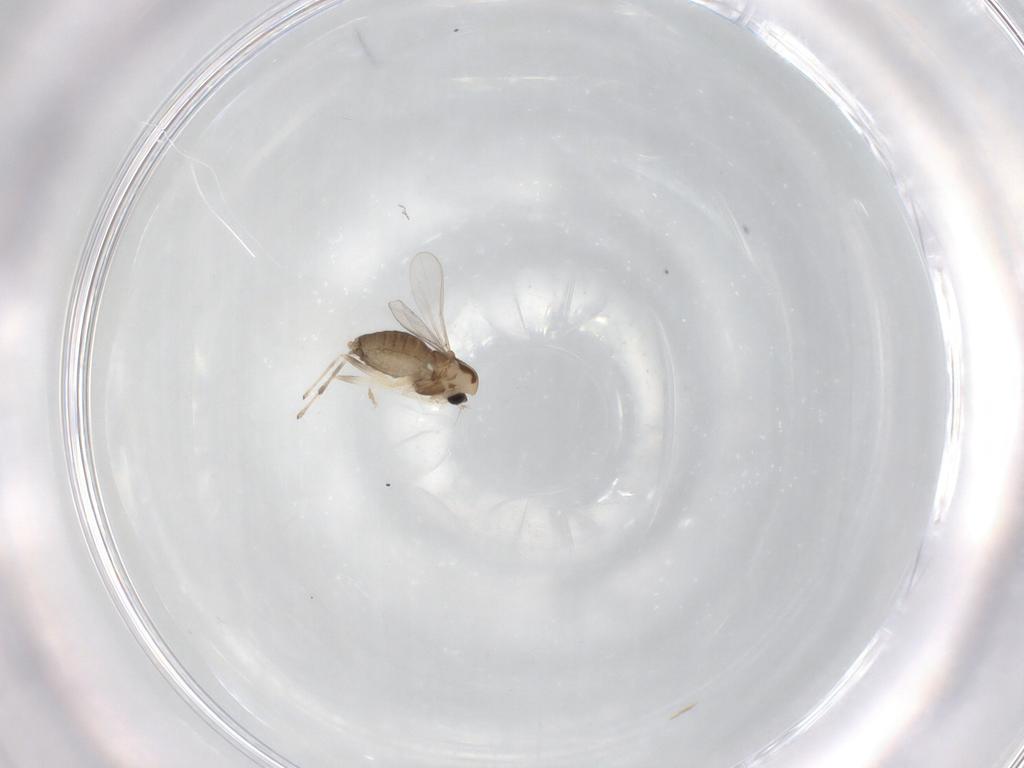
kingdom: Animalia
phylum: Arthropoda
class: Insecta
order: Diptera
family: Chironomidae
